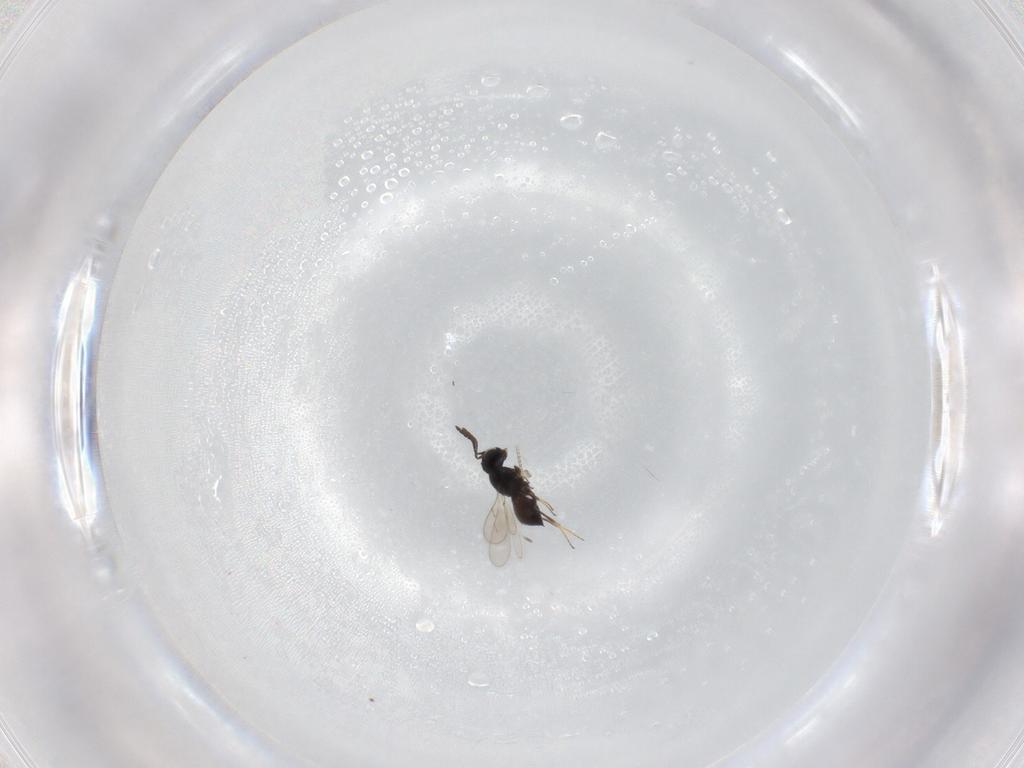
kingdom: Animalia
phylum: Arthropoda
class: Insecta
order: Hymenoptera
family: Scelionidae
